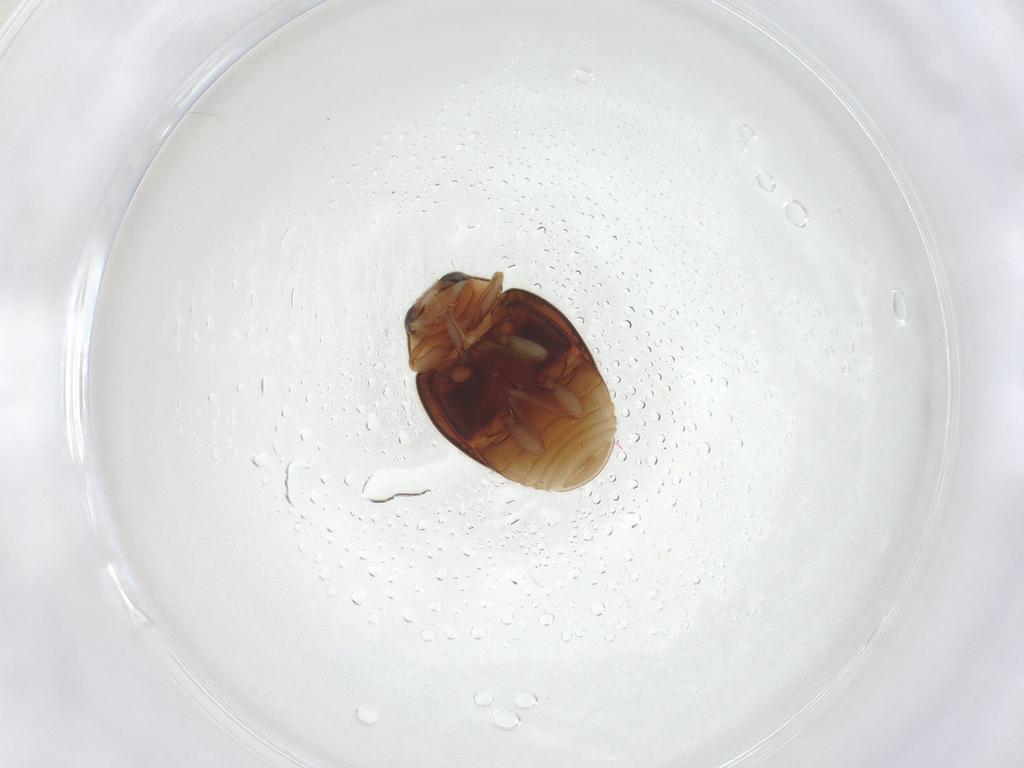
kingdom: Animalia
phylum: Arthropoda
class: Insecta
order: Coleoptera
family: Coccinellidae
